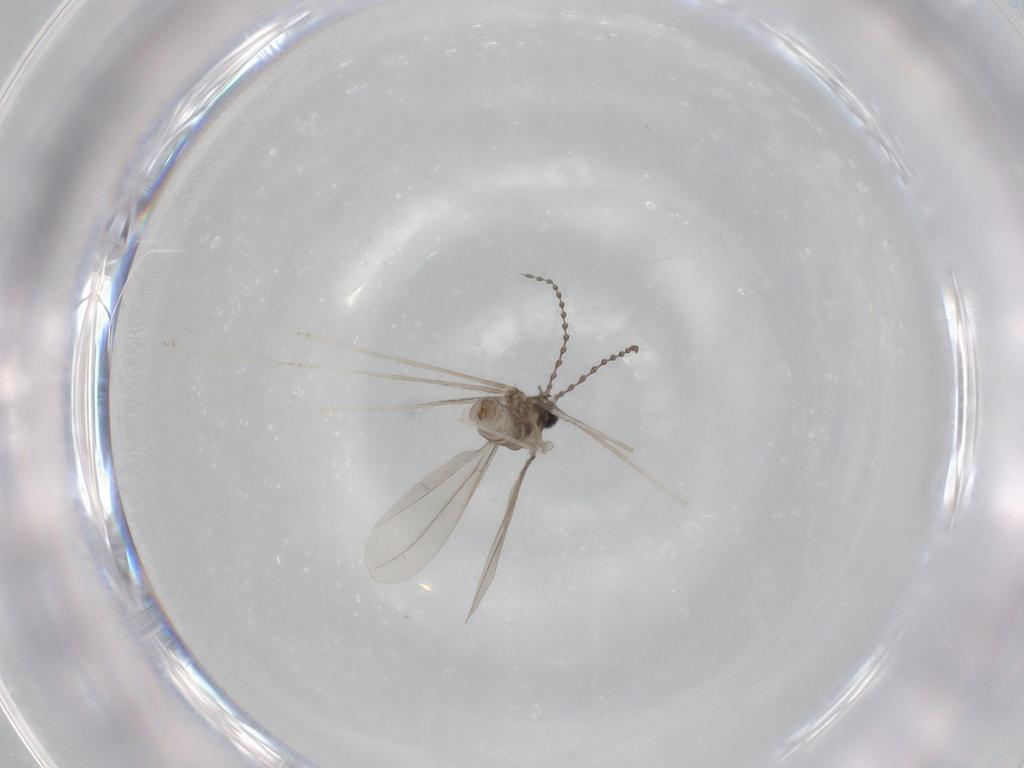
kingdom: Animalia
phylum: Arthropoda
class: Insecta
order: Diptera
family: Cecidomyiidae
